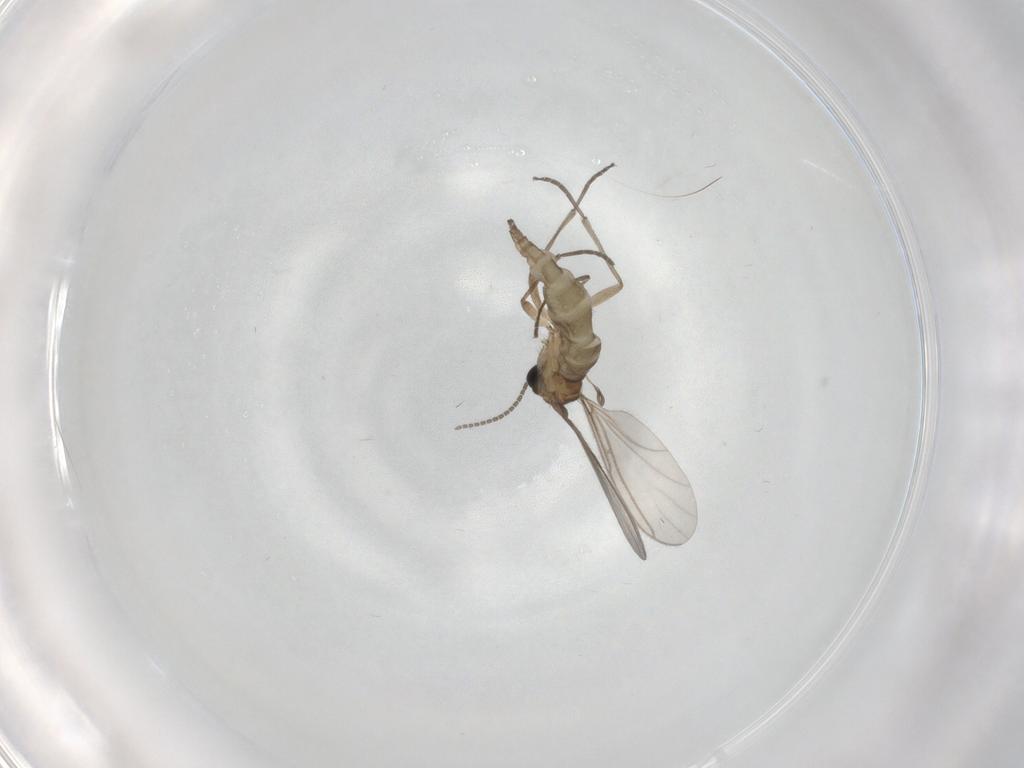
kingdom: Animalia
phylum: Arthropoda
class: Insecta
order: Diptera
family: Sciaridae
